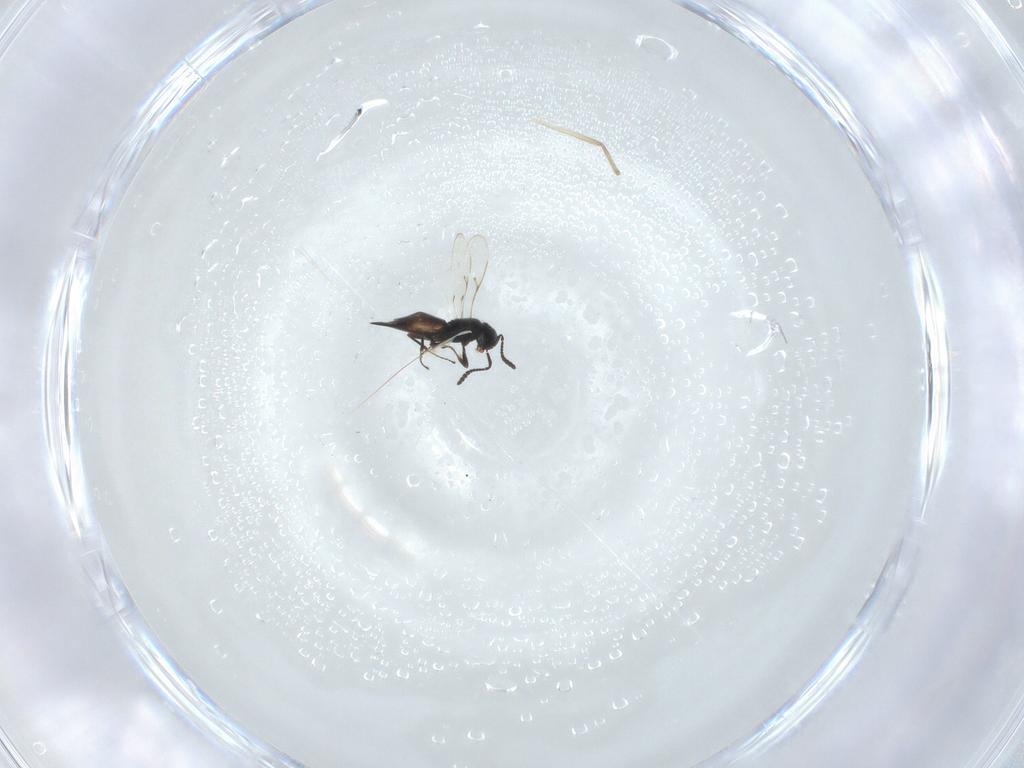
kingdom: Animalia
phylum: Arthropoda
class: Insecta
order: Hymenoptera
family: Scelionidae
